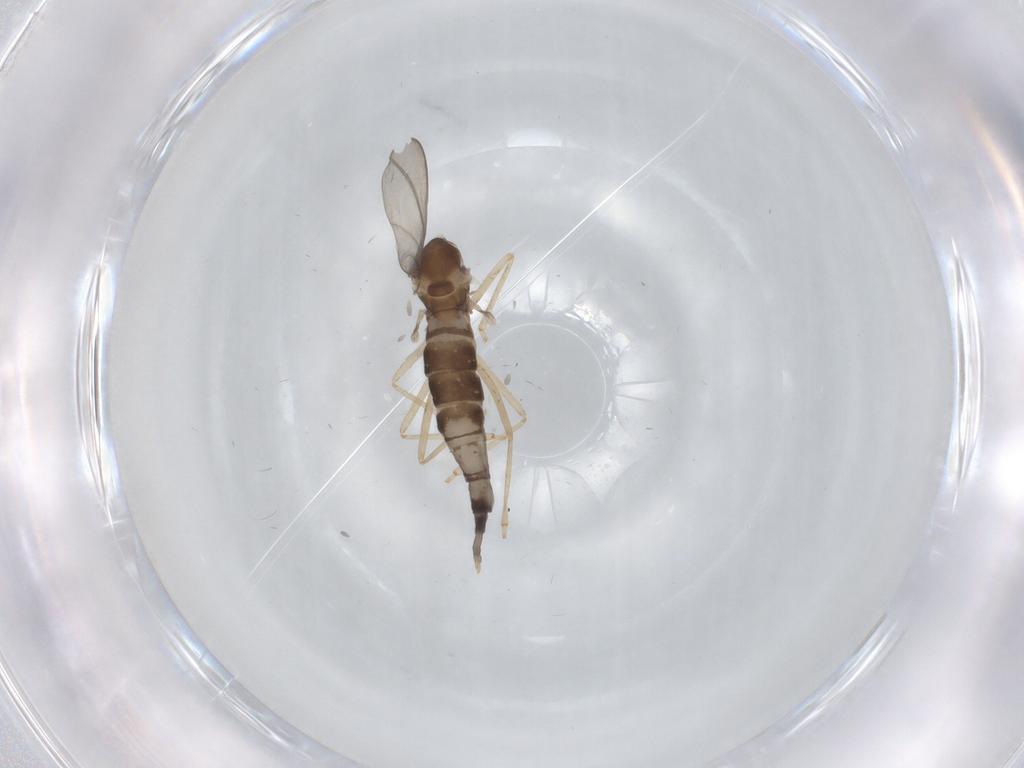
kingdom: Animalia
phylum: Arthropoda
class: Insecta
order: Diptera
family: Cecidomyiidae
